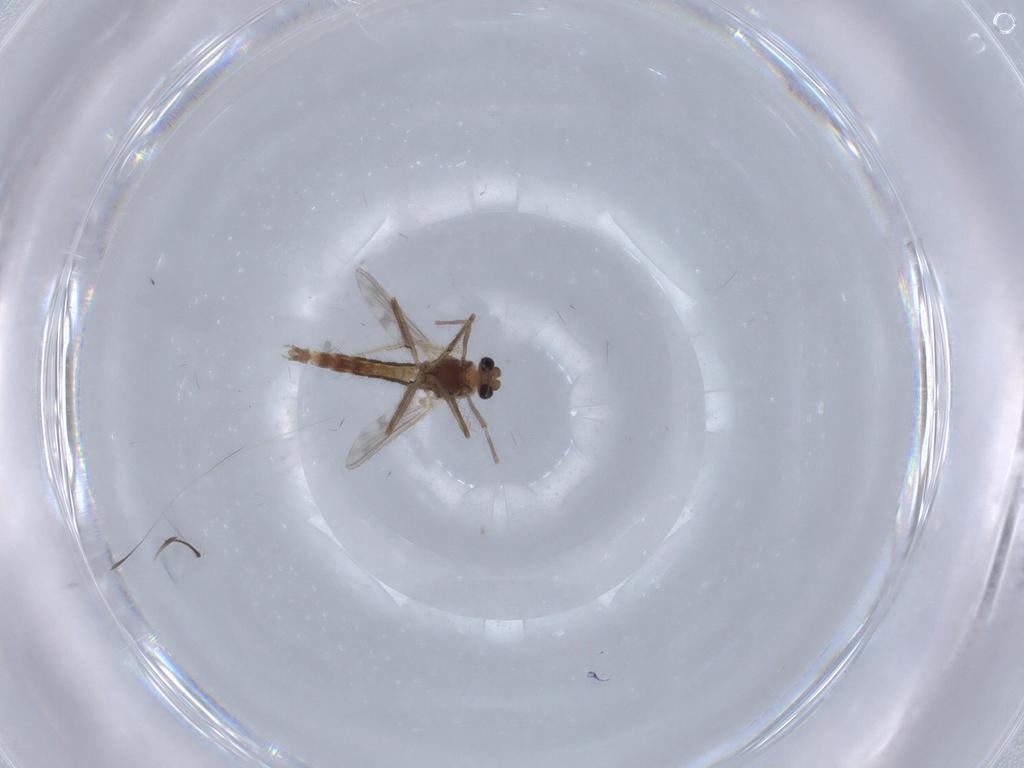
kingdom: Animalia
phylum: Arthropoda
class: Insecta
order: Diptera
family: Chironomidae
